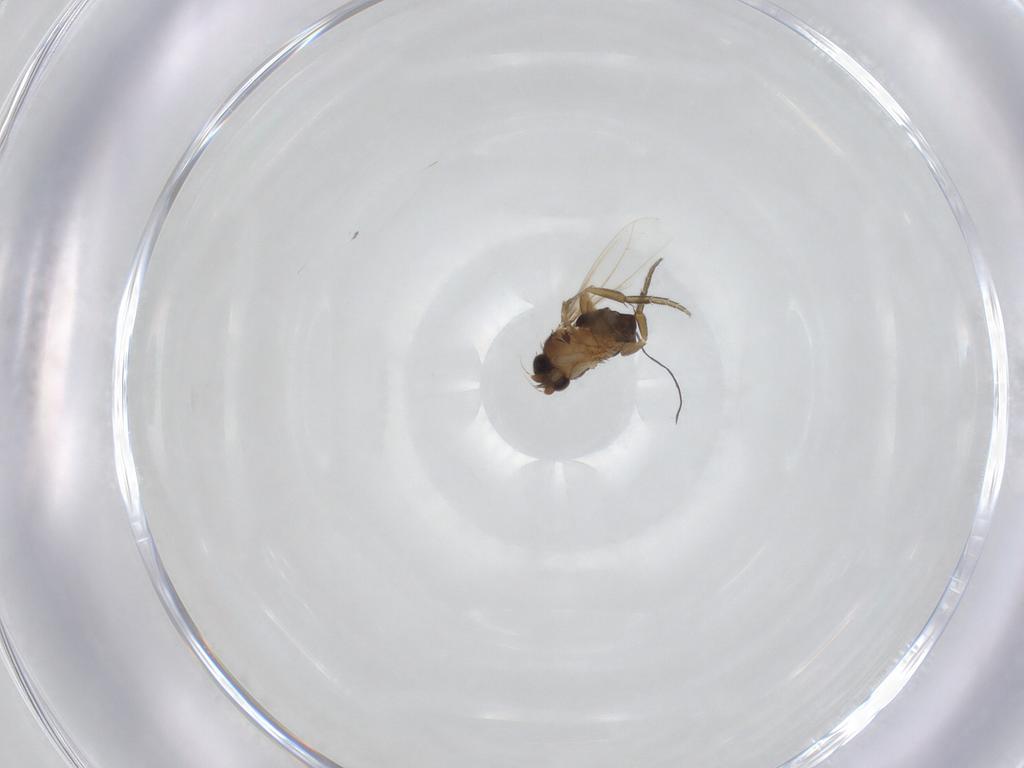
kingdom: Animalia
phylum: Arthropoda
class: Insecta
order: Diptera
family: Phoridae
